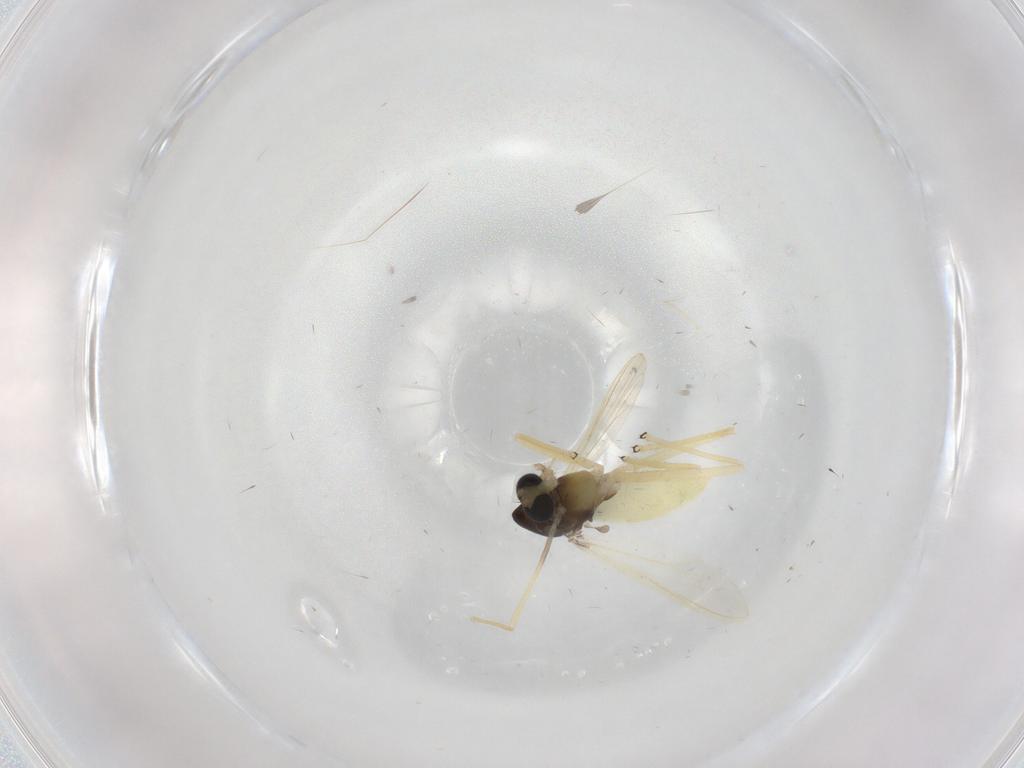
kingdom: Animalia
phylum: Arthropoda
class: Insecta
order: Diptera
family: Chironomidae
